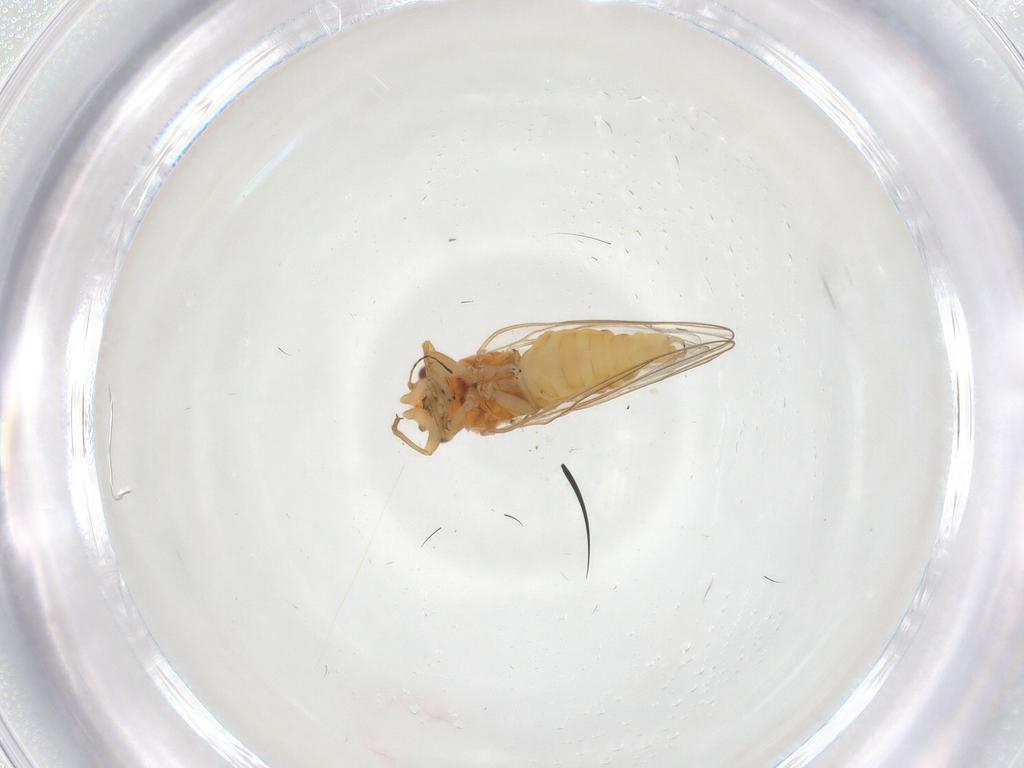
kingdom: Animalia
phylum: Arthropoda
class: Insecta
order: Diptera
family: Phoridae
